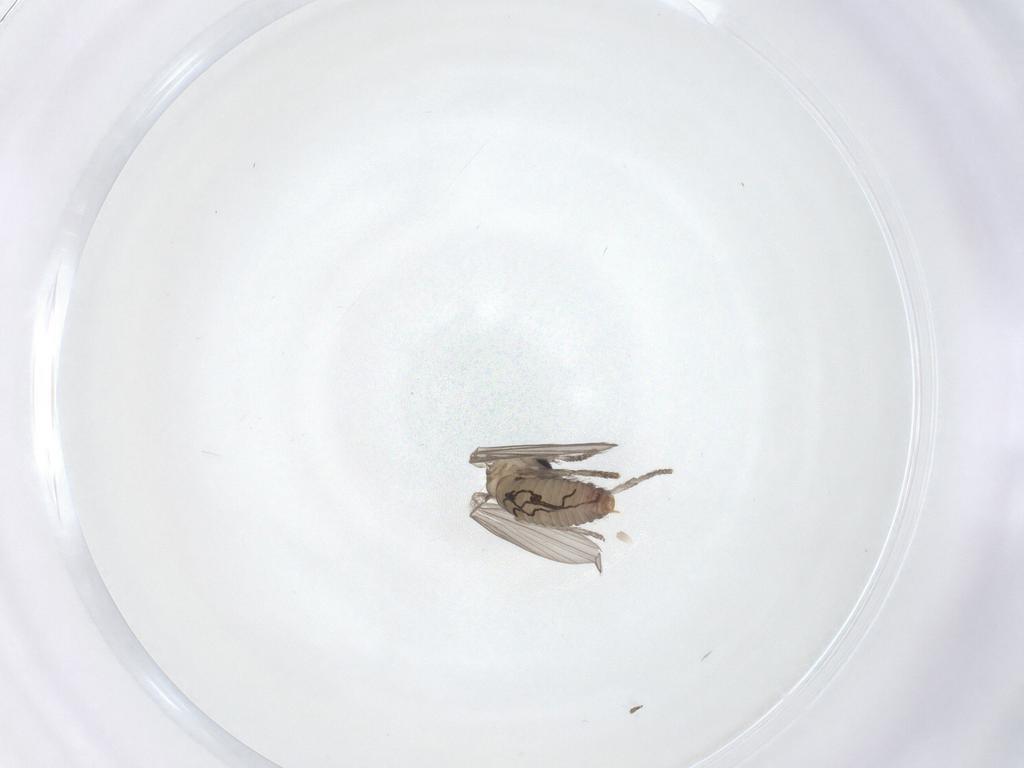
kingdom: Animalia
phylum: Arthropoda
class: Insecta
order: Diptera
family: Psychodidae
